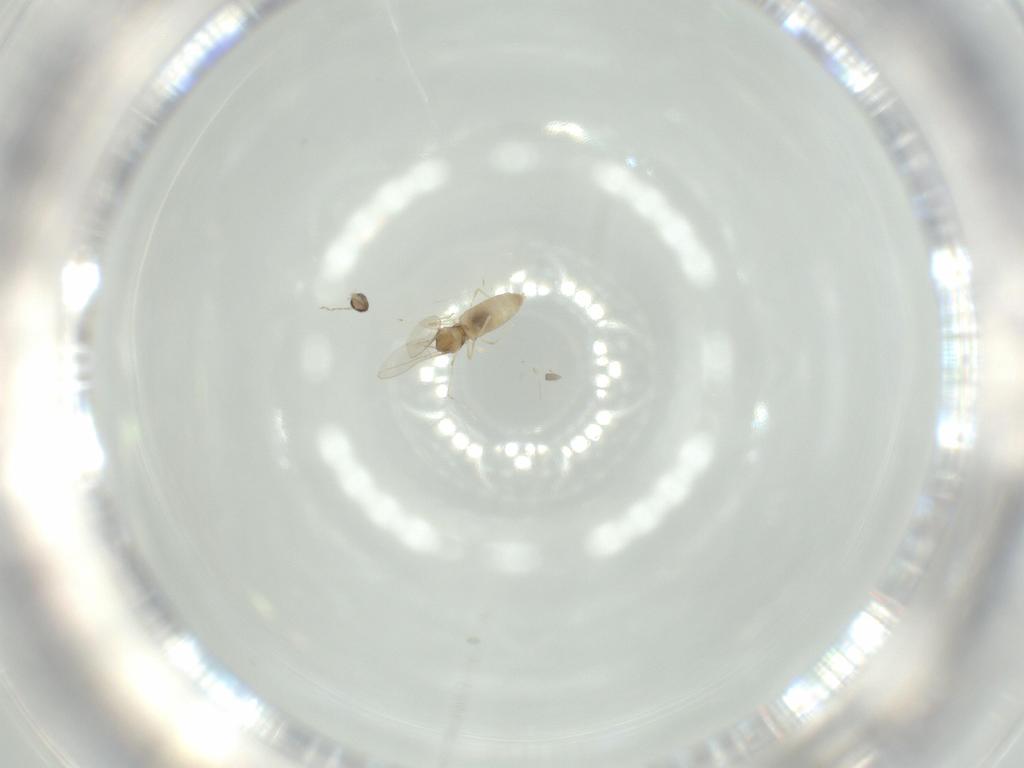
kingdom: Animalia
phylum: Arthropoda
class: Insecta
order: Diptera
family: Cecidomyiidae
